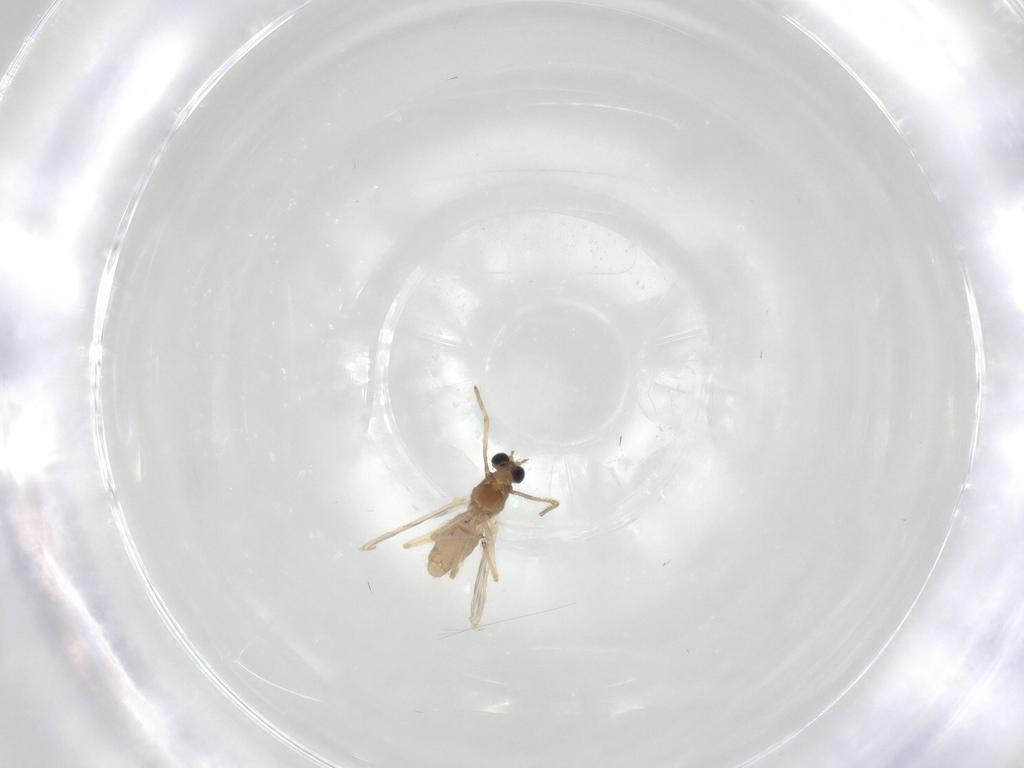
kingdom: Animalia
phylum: Arthropoda
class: Insecta
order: Diptera
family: Chironomidae
